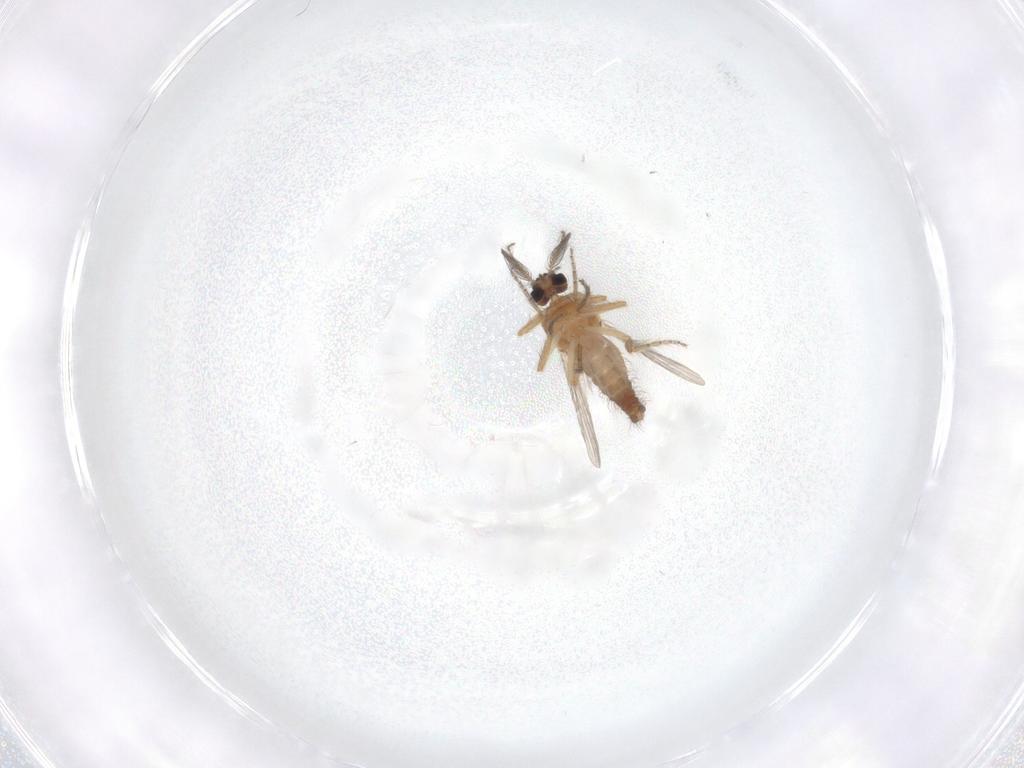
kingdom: Animalia
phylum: Arthropoda
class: Insecta
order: Diptera
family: Ceratopogonidae
